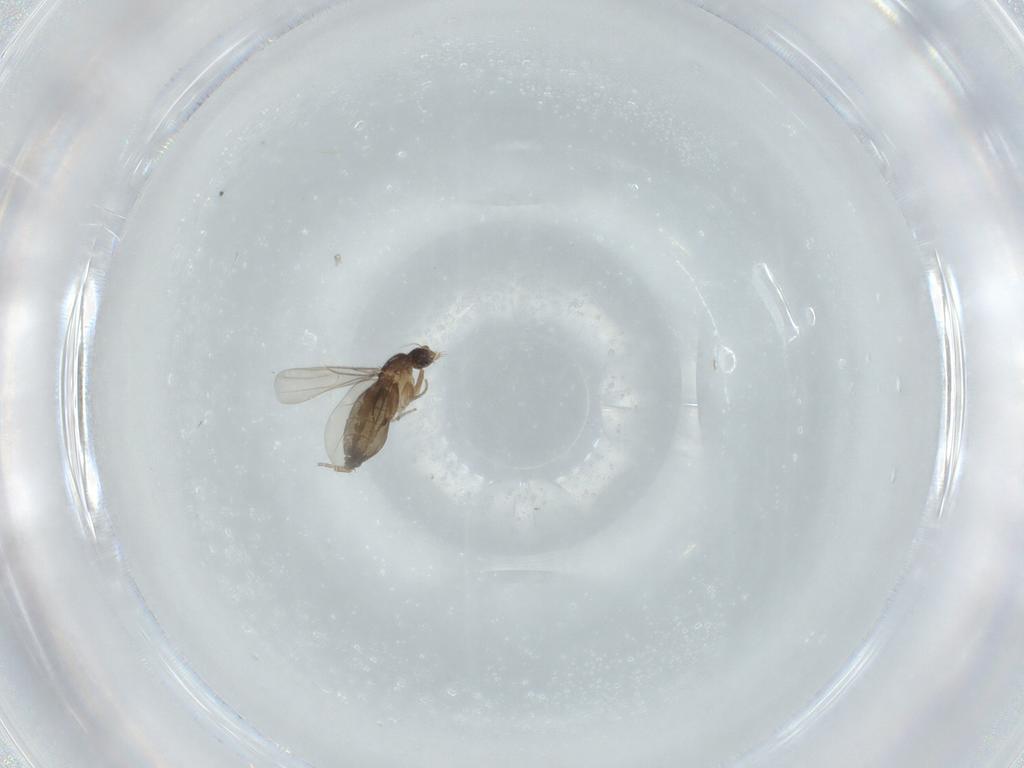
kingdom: Animalia
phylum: Arthropoda
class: Insecta
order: Diptera
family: Phoridae
